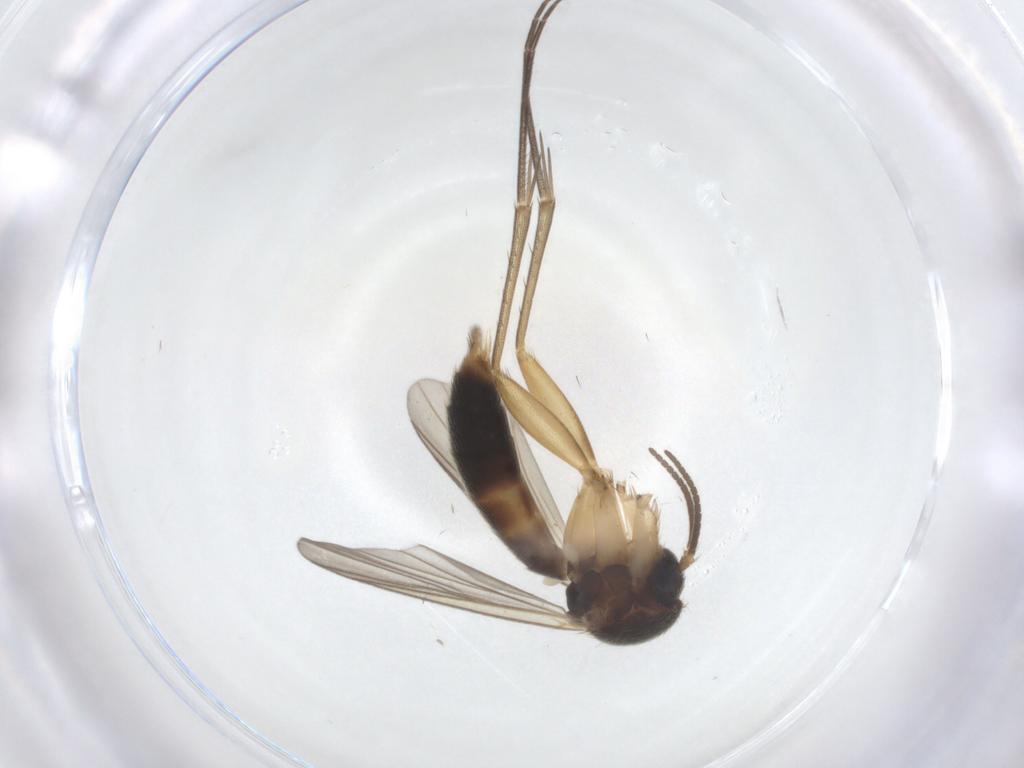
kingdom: Animalia
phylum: Arthropoda
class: Insecta
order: Diptera
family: Mycetophilidae
